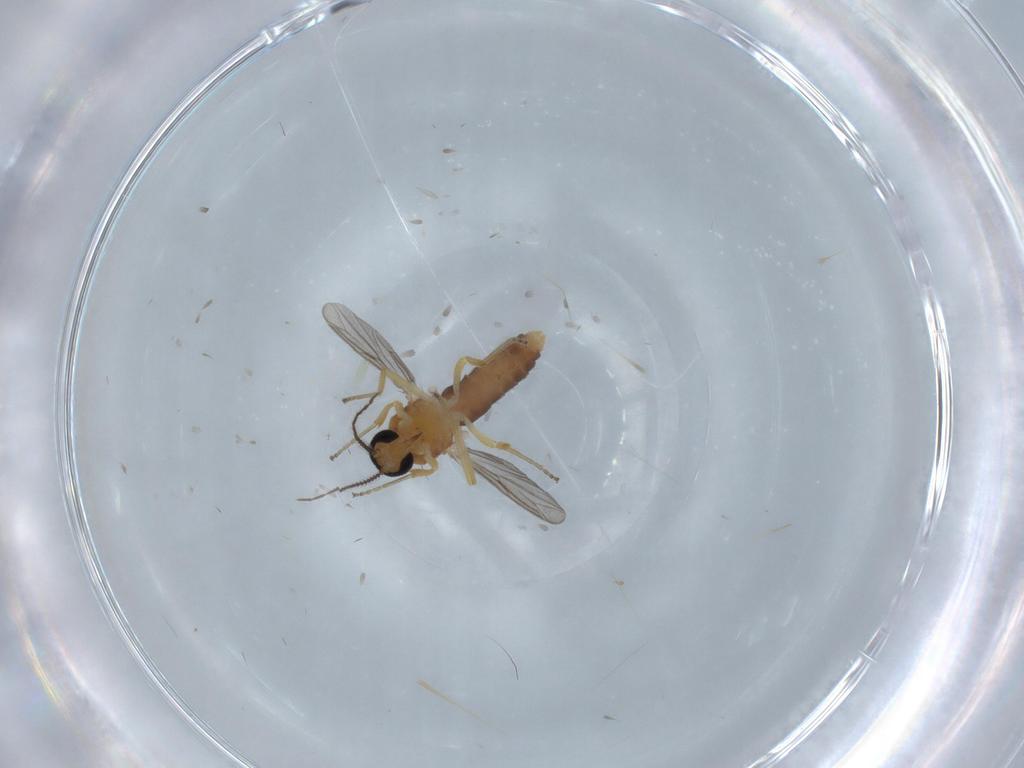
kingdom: Animalia
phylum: Arthropoda
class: Insecta
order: Diptera
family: Ceratopogonidae
